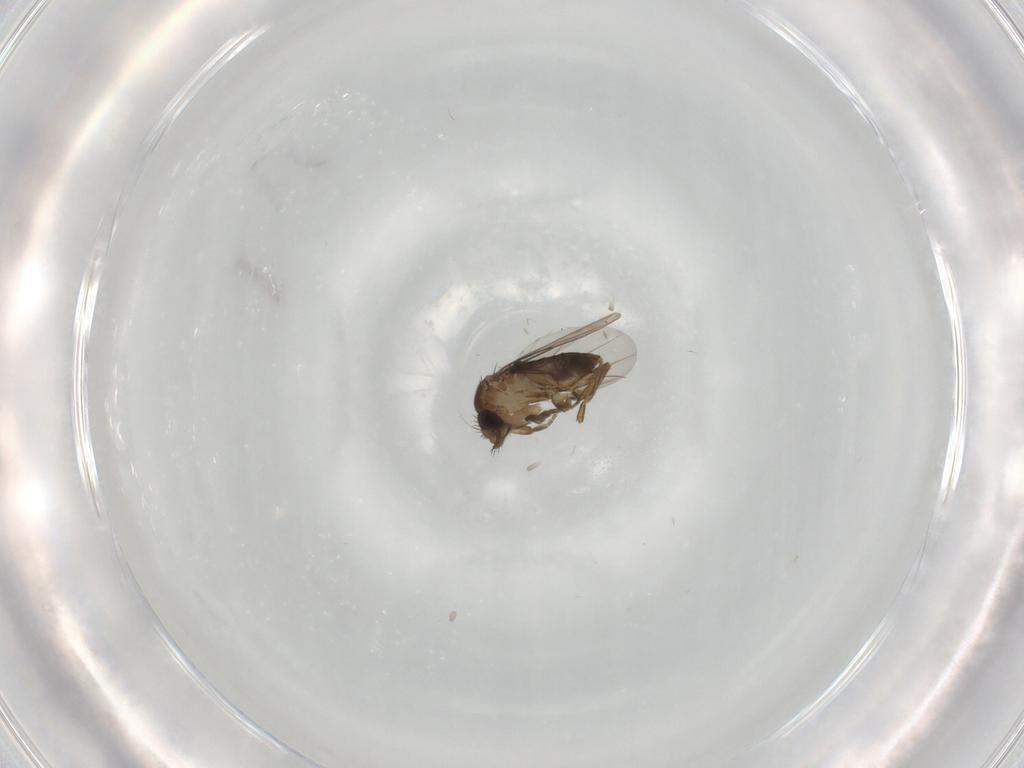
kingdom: Animalia
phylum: Arthropoda
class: Insecta
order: Diptera
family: Phoridae
